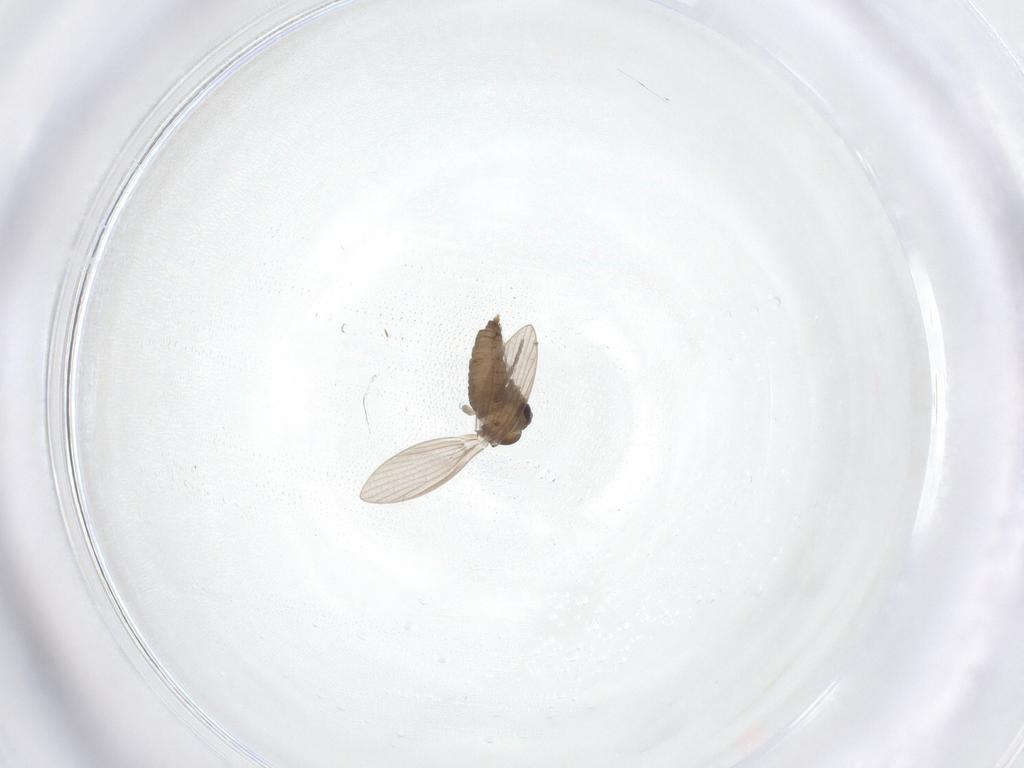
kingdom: Animalia
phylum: Arthropoda
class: Insecta
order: Diptera
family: Psychodidae
